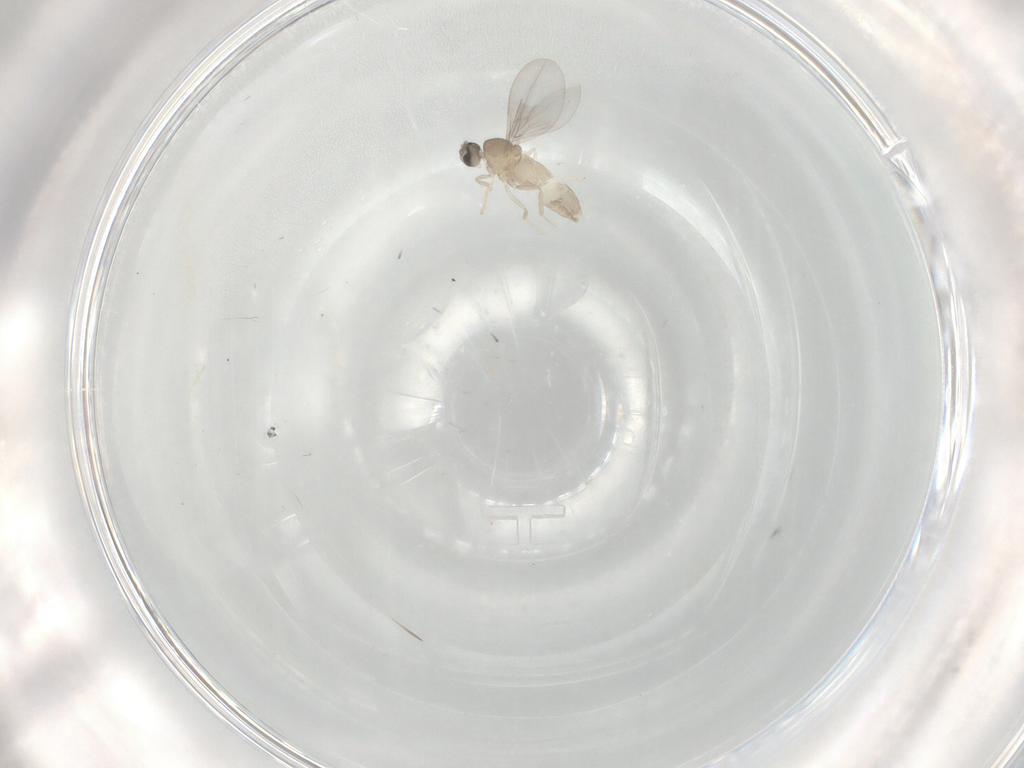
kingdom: Animalia
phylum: Arthropoda
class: Insecta
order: Diptera
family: Cecidomyiidae
